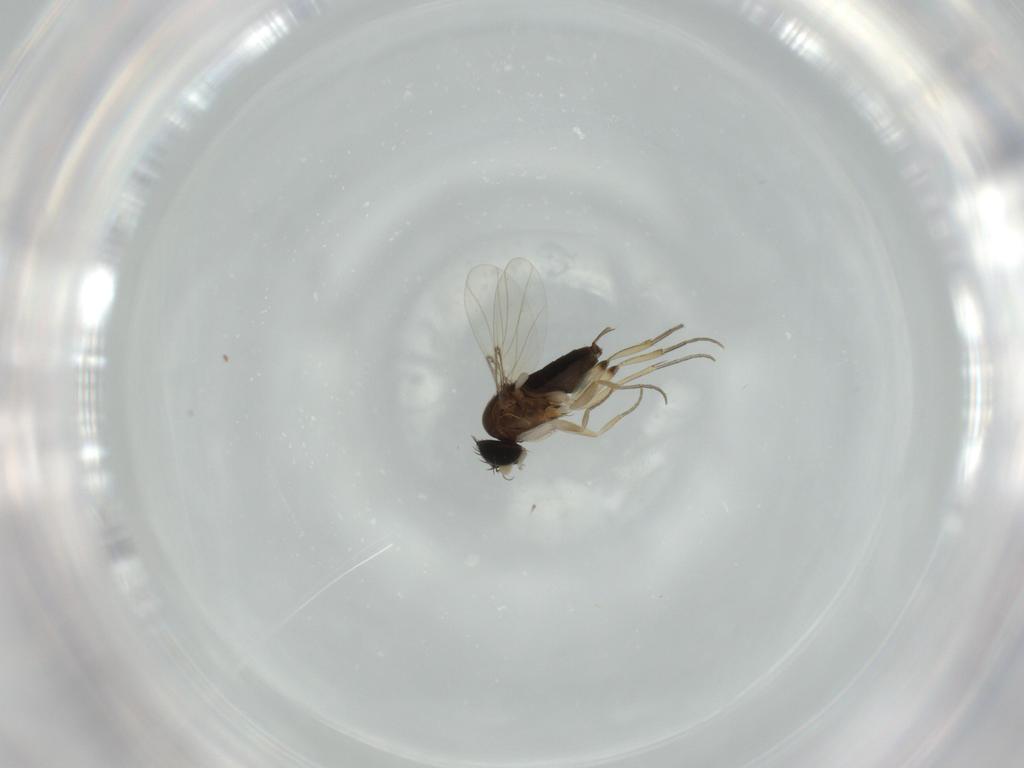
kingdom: Animalia
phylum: Arthropoda
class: Insecta
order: Diptera
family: Phoridae
